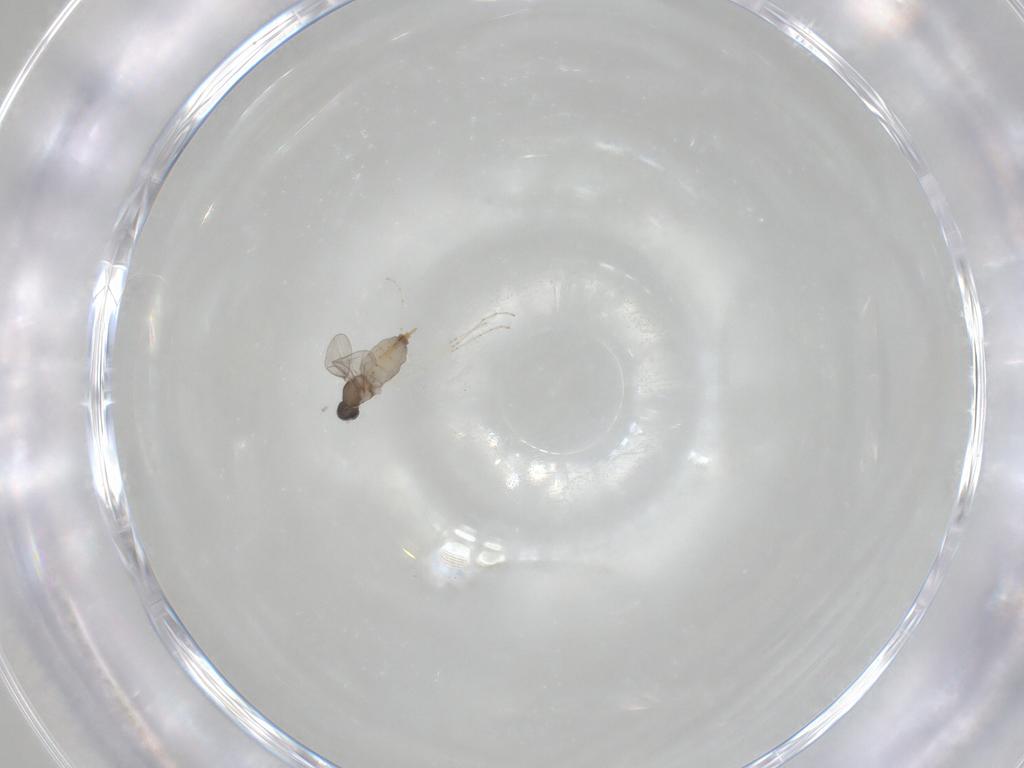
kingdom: Animalia
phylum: Arthropoda
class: Insecta
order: Diptera
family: Cecidomyiidae
